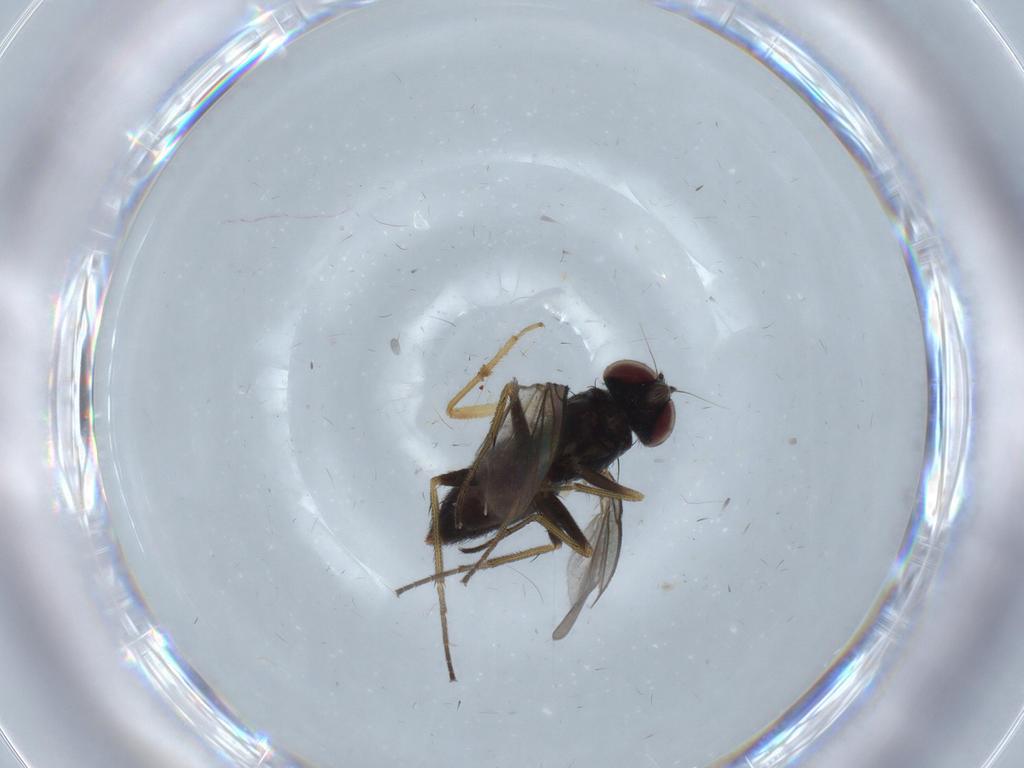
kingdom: Animalia
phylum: Arthropoda
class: Insecta
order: Diptera
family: Dolichopodidae
